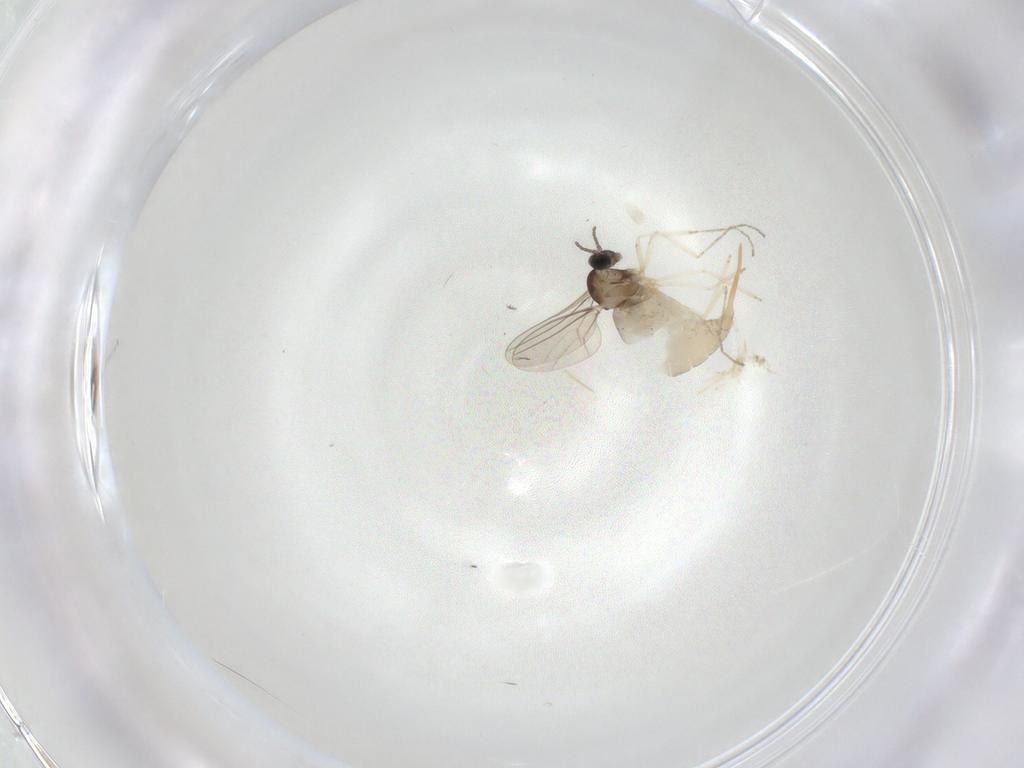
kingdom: Animalia
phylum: Arthropoda
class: Insecta
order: Diptera
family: Cecidomyiidae
